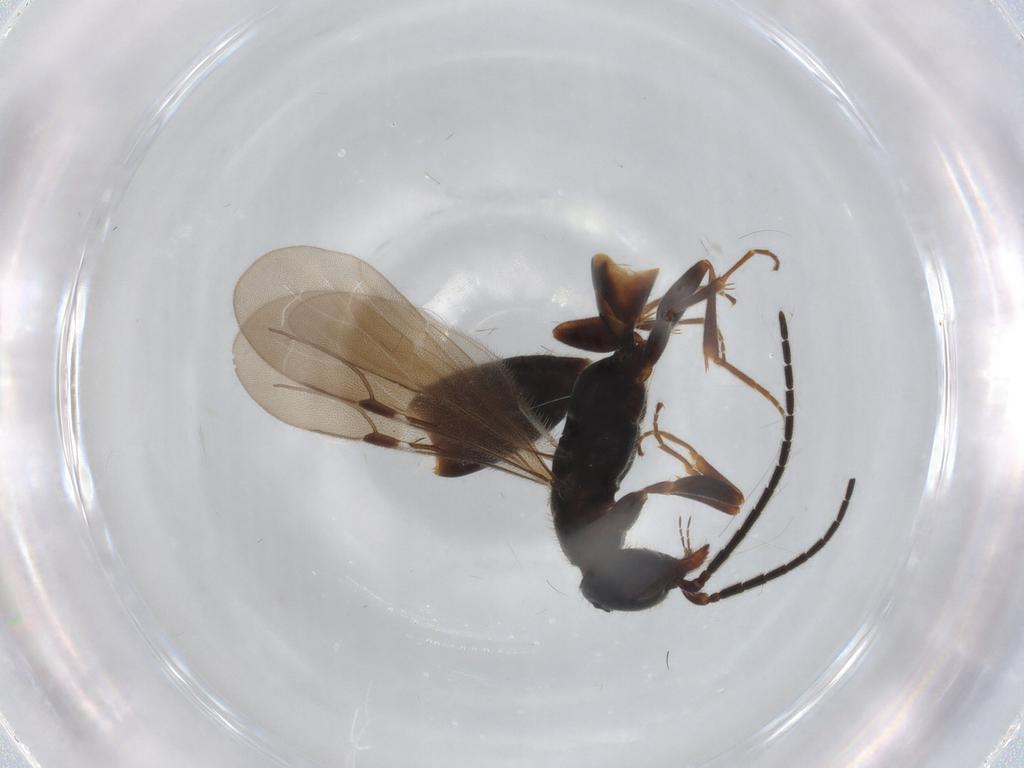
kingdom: Animalia
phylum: Arthropoda
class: Insecta
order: Hymenoptera
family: Bethylidae
